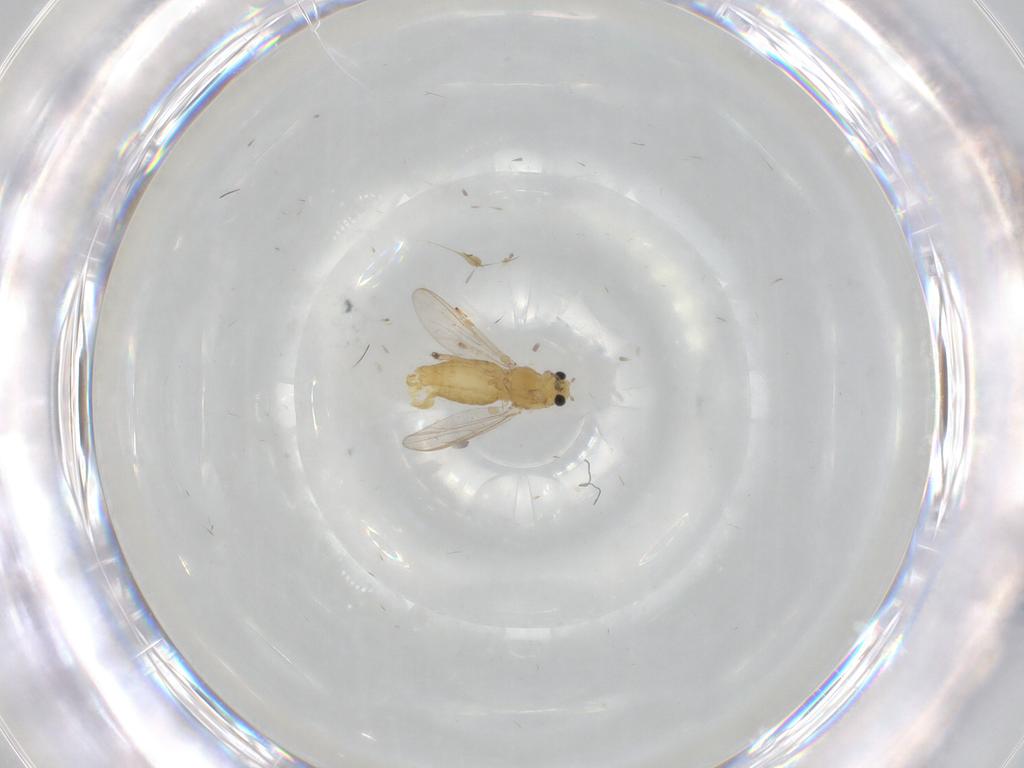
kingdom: Animalia
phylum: Arthropoda
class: Insecta
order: Diptera
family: Chironomidae
